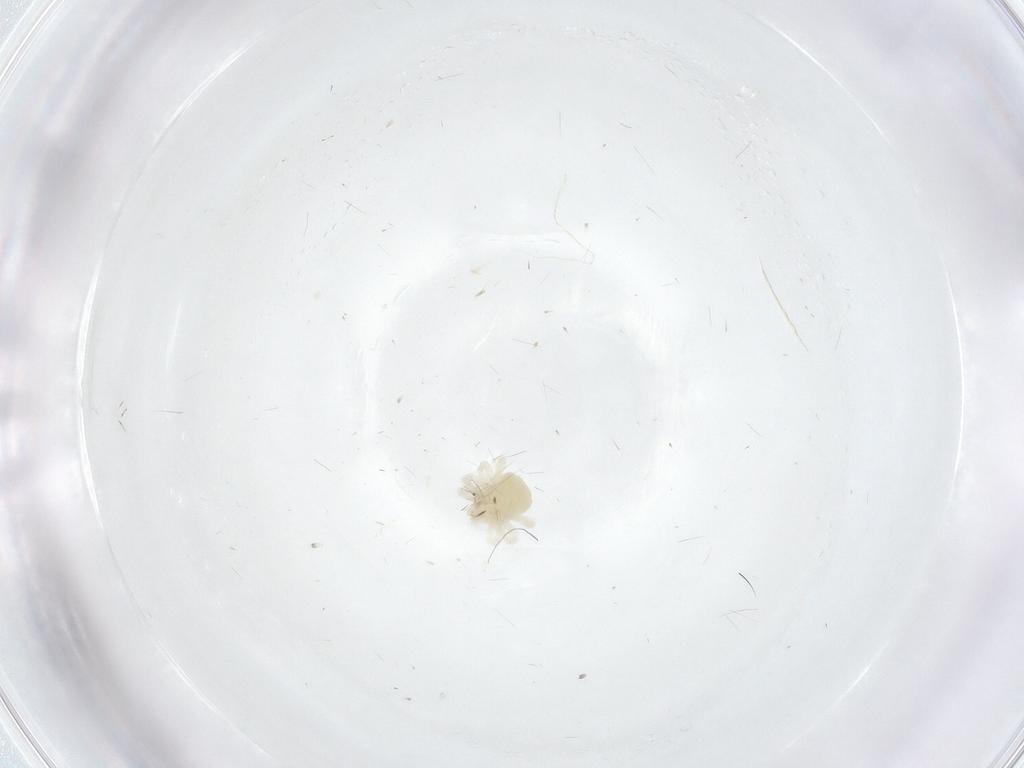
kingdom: Animalia
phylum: Arthropoda
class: Arachnida
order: Trombidiformes
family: Anystidae
